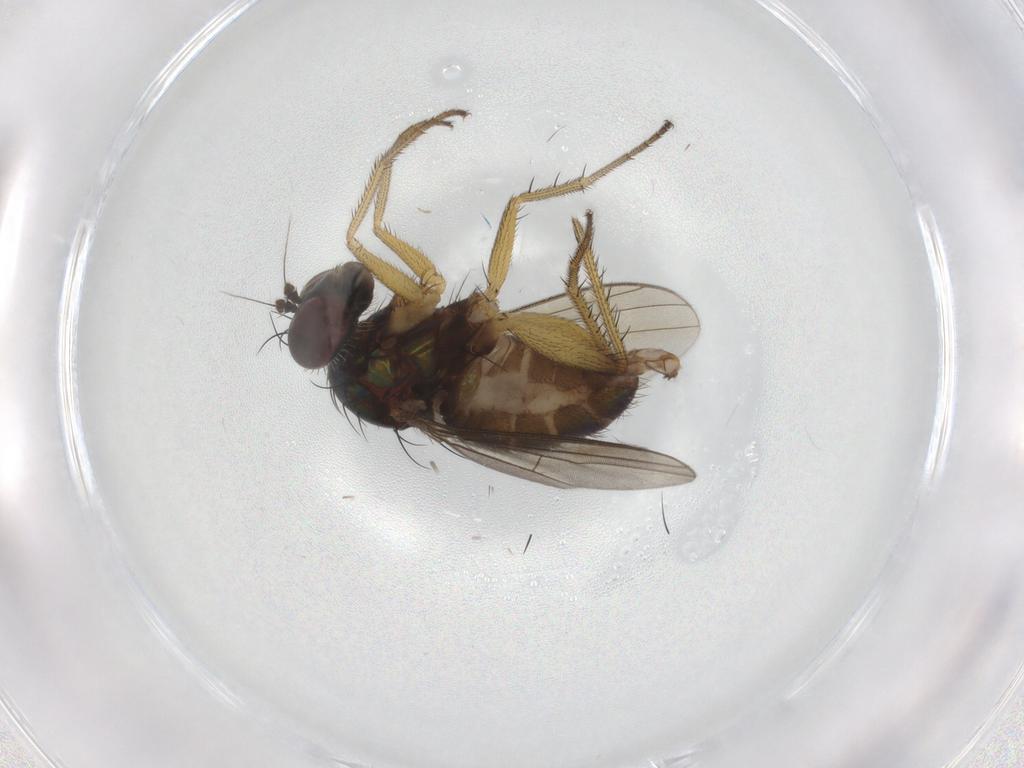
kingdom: Animalia
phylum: Arthropoda
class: Insecta
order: Diptera
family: Dolichopodidae
